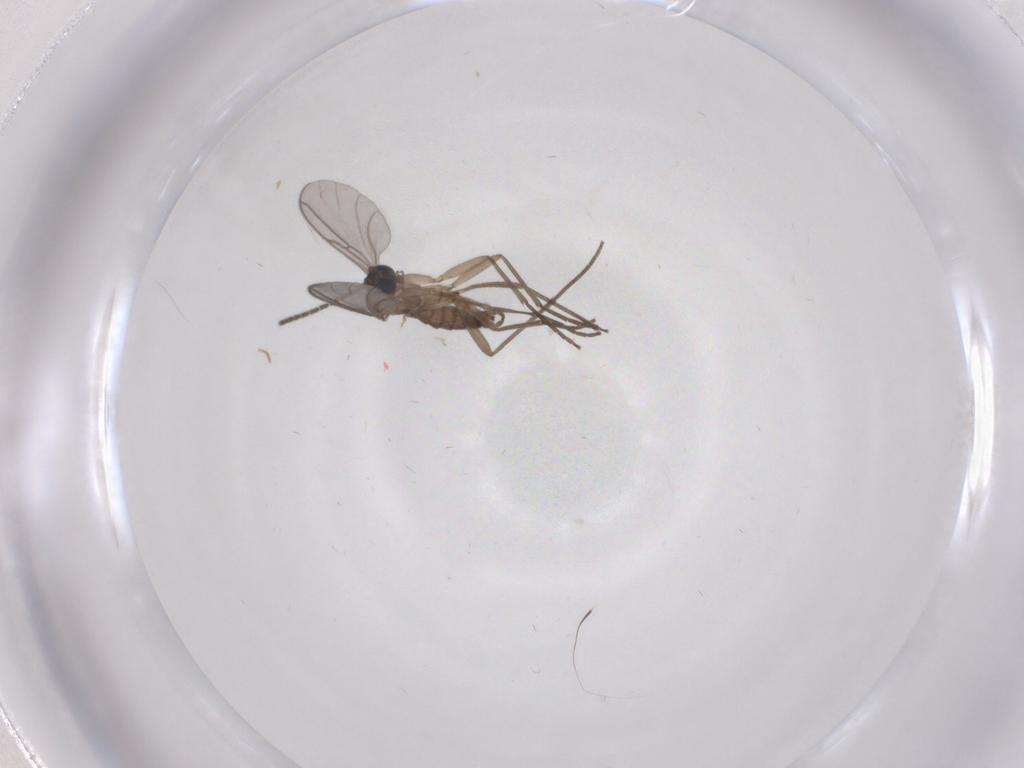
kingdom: Animalia
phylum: Arthropoda
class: Insecta
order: Diptera
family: Sciaridae
